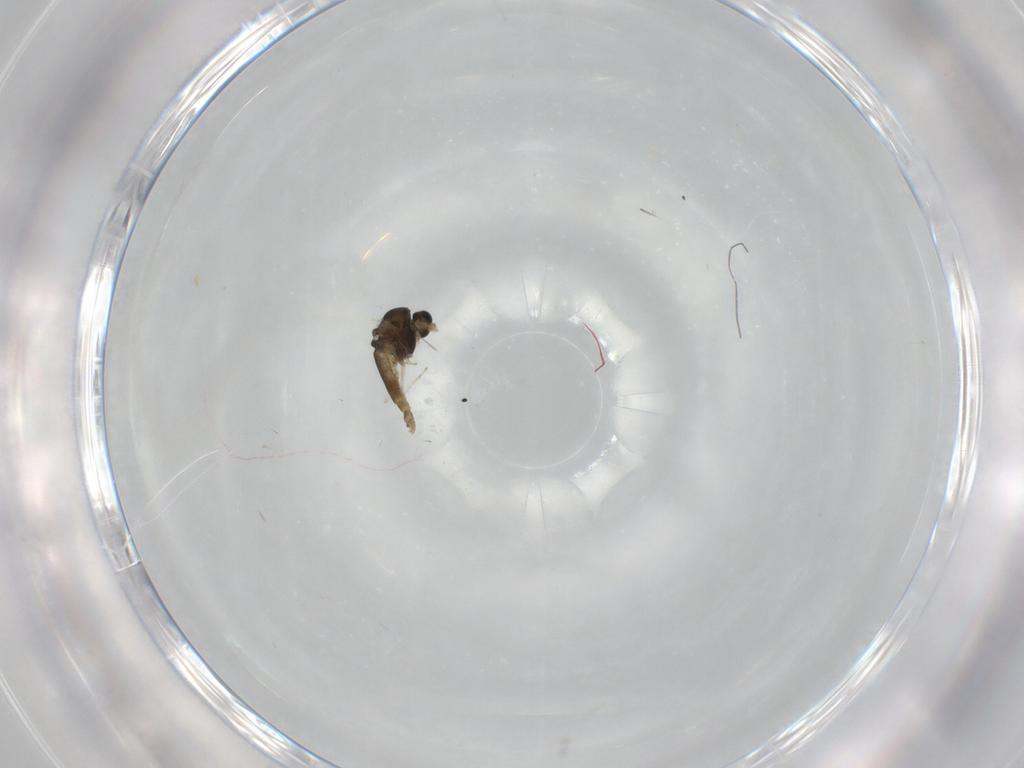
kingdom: Animalia
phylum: Arthropoda
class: Insecta
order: Diptera
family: Chironomidae
